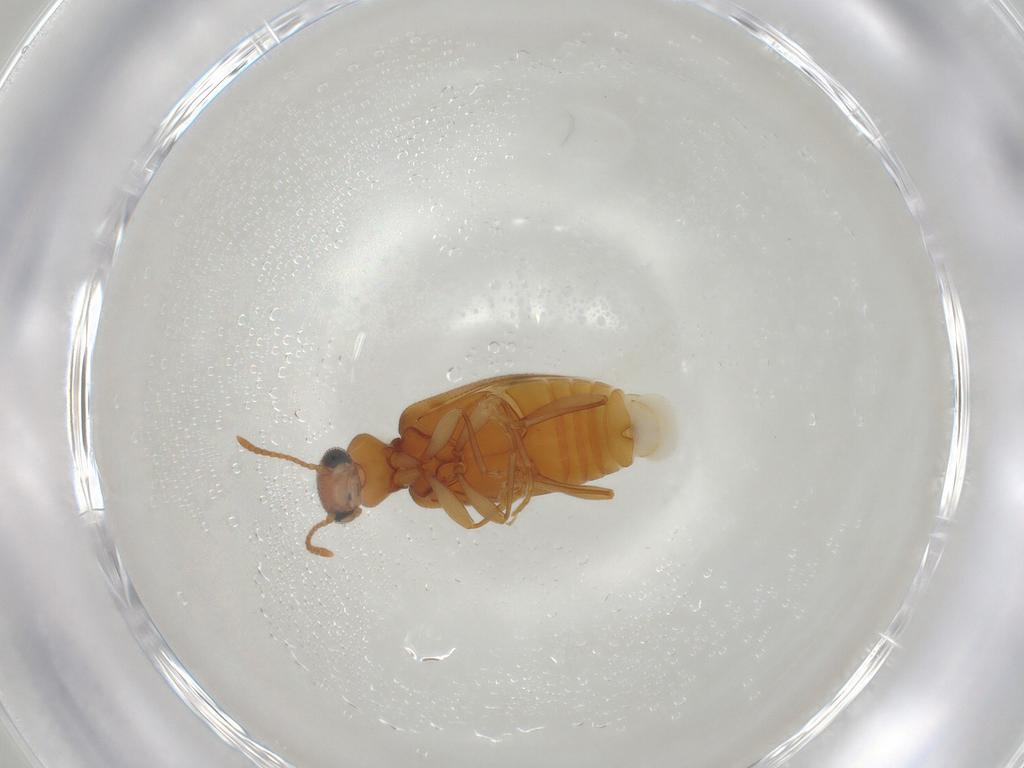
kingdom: Animalia
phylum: Arthropoda
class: Insecta
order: Coleoptera
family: Anthicidae
